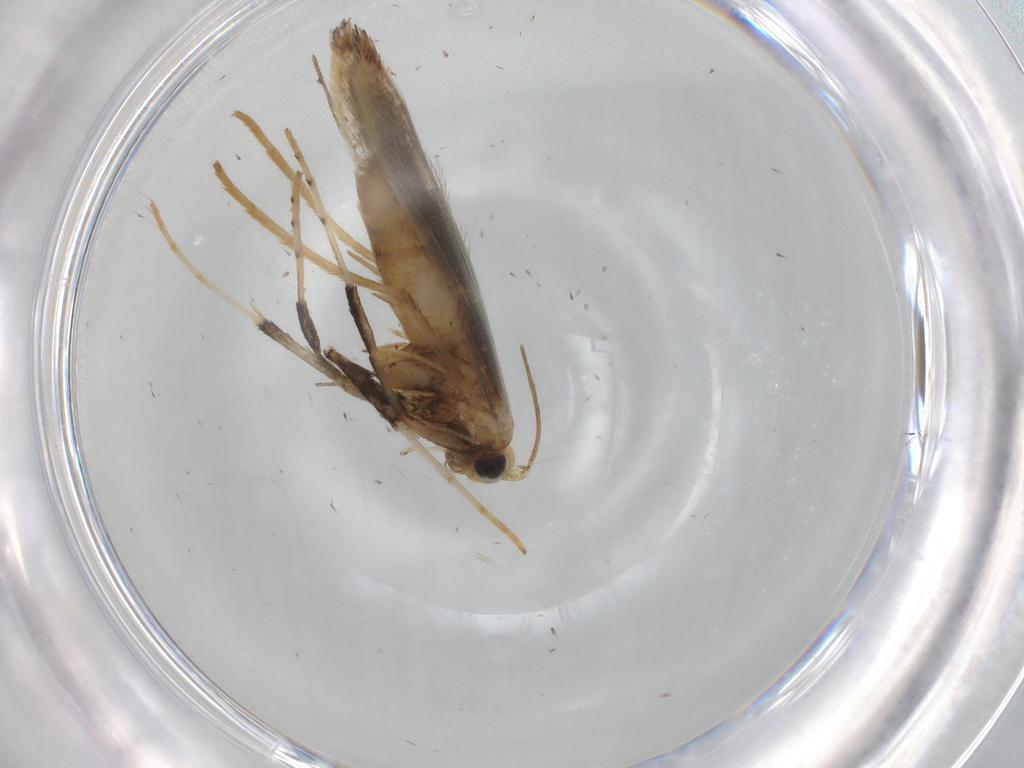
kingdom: Animalia
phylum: Arthropoda
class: Insecta
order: Lepidoptera
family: Gracillariidae
